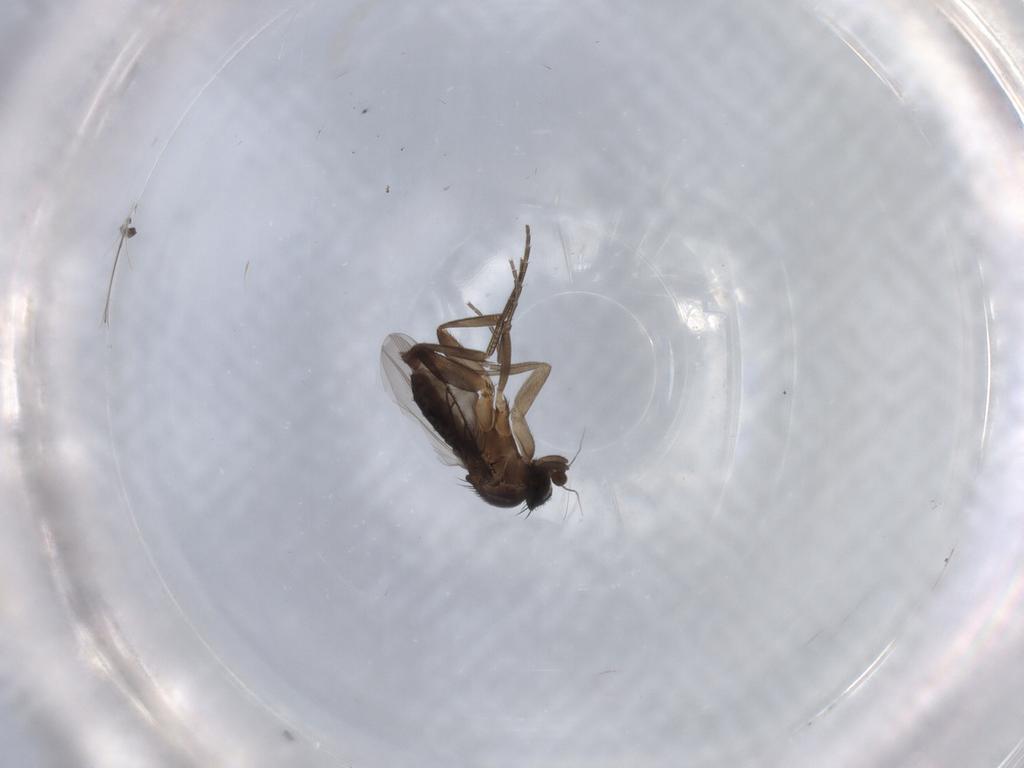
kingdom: Animalia
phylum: Arthropoda
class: Insecta
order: Diptera
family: Phoridae
